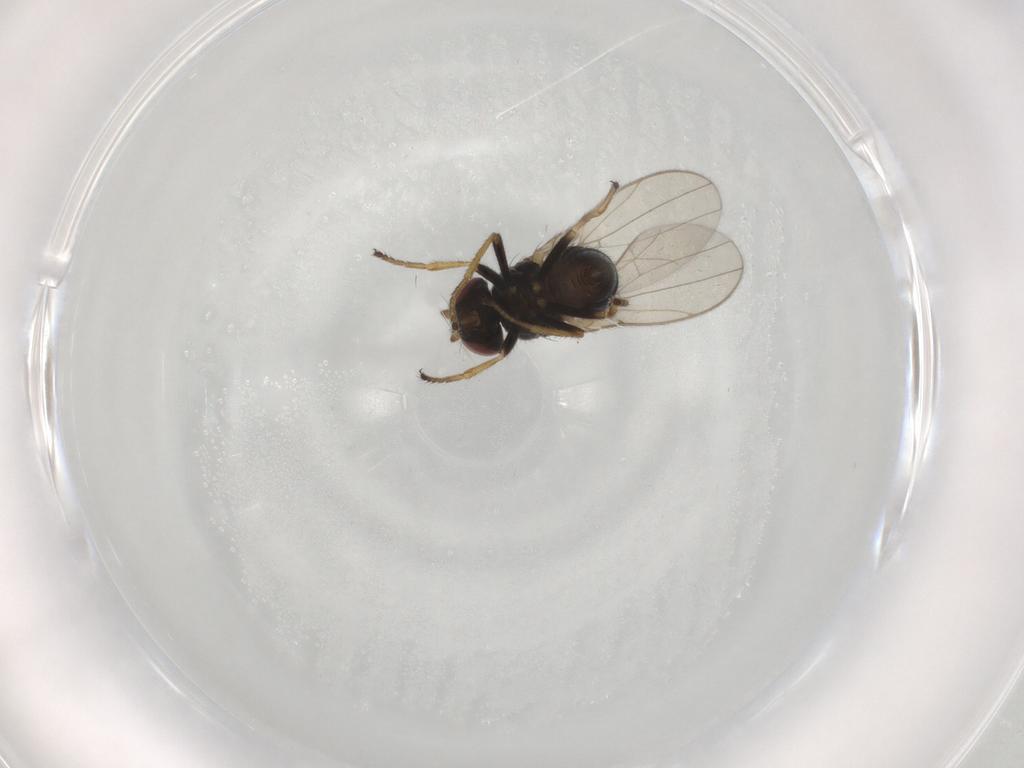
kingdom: Animalia
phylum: Arthropoda
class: Insecta
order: Diptera
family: Ephydridae
